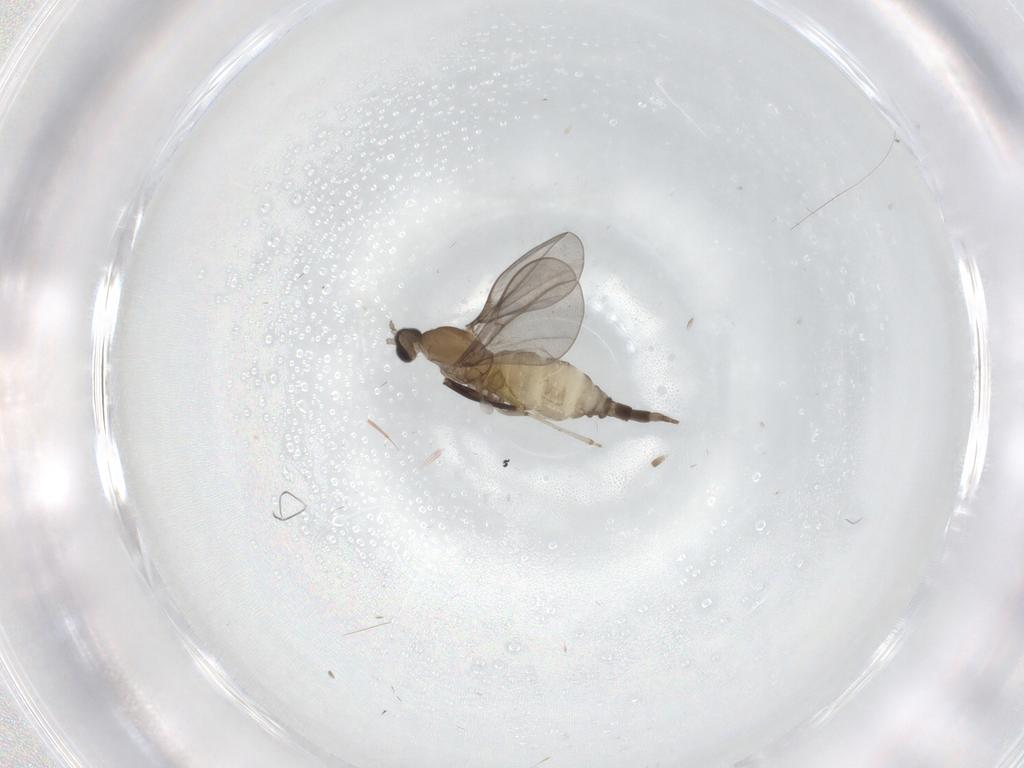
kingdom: Animalia
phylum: Arthropoda
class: Insecta
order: Diptera
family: Cecidomyiidae
